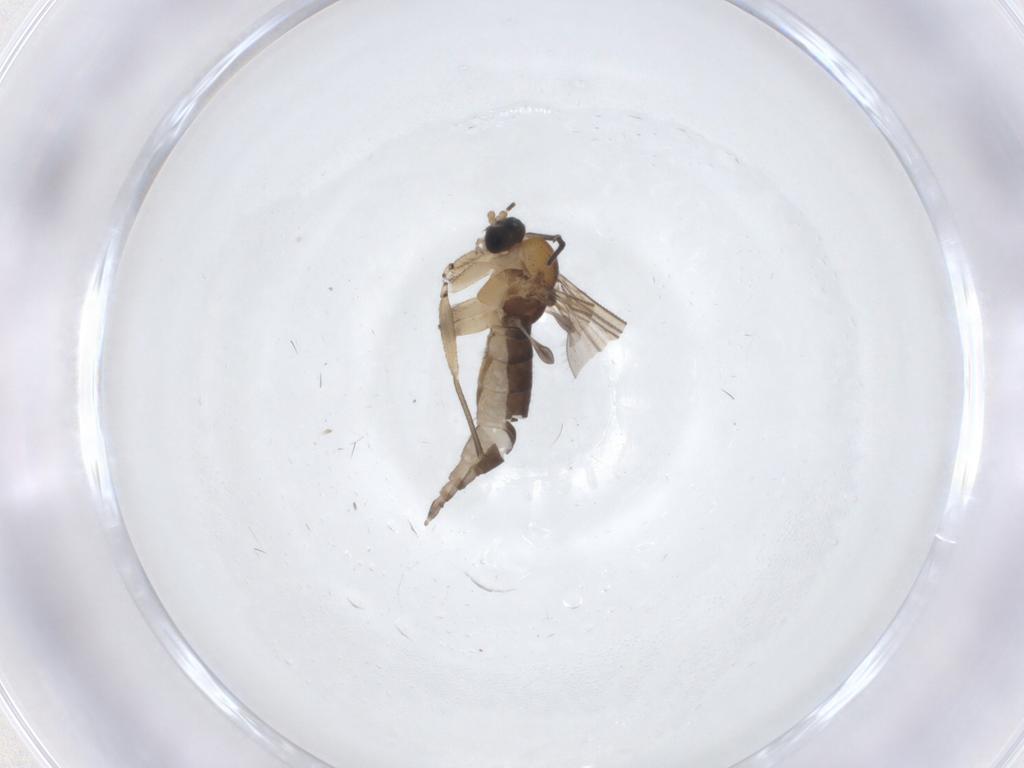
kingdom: Animalia
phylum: Arthropoda
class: Insecta
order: Diptera
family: Sciaridae
